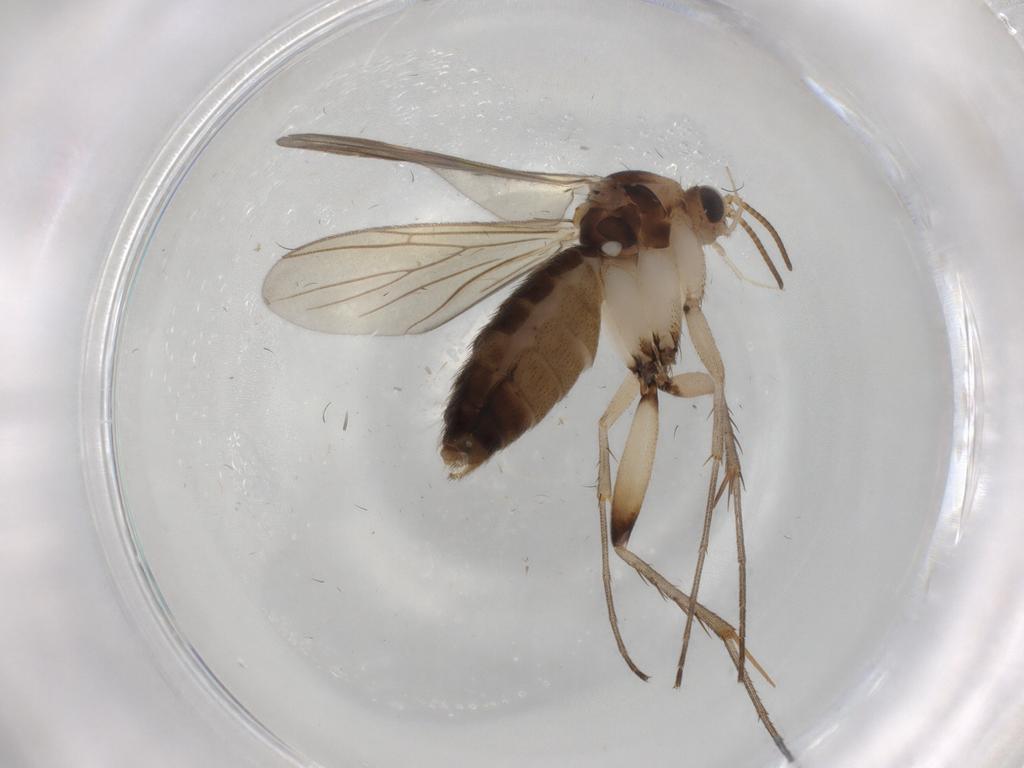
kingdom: Animalia
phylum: Arthropoda
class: Insecta
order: Diptera
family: Mycetophilidae
